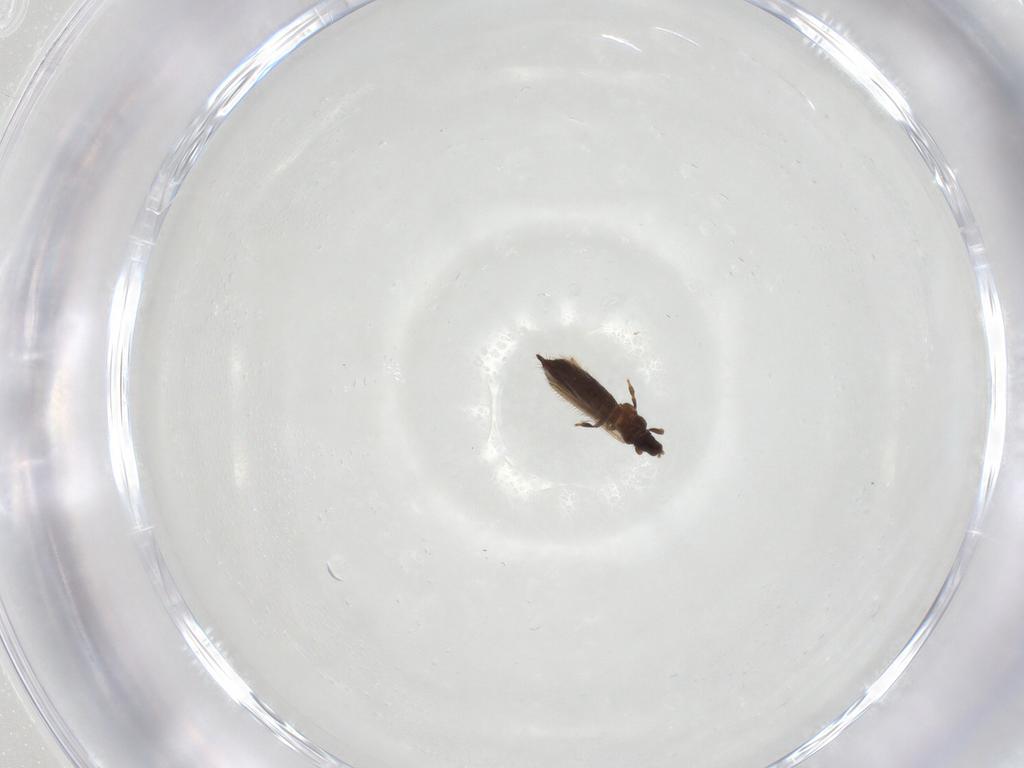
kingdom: Animalia
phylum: Arthropoda
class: Insecta
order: Thysanoptera
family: Thripidae
